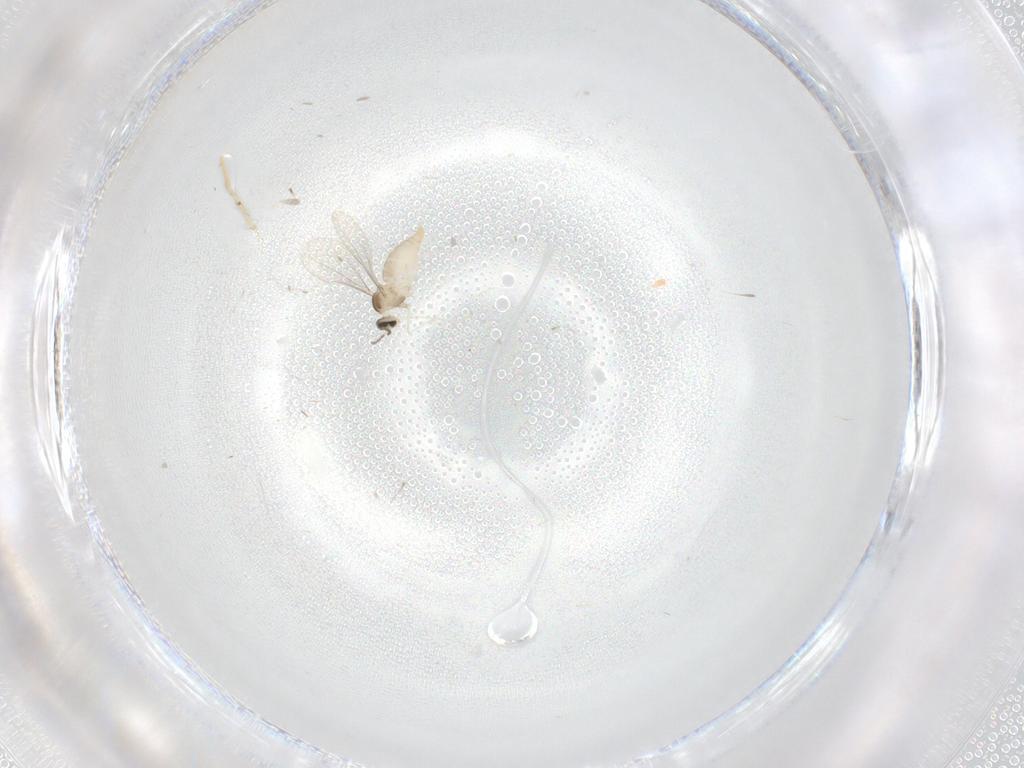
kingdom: Animalia
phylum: Arthropoda
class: Insecta
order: Diptera
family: Cecidomyiidae
